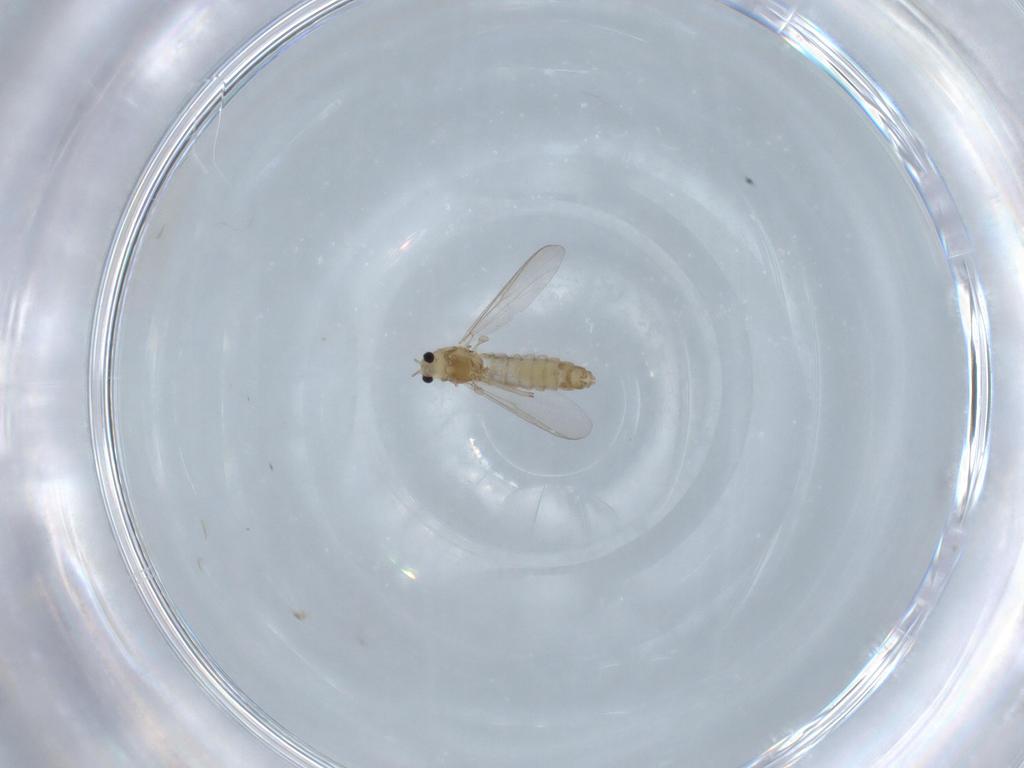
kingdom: Animalia
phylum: Arthropoda
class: Insecta
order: Diptera
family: Chironomidae
